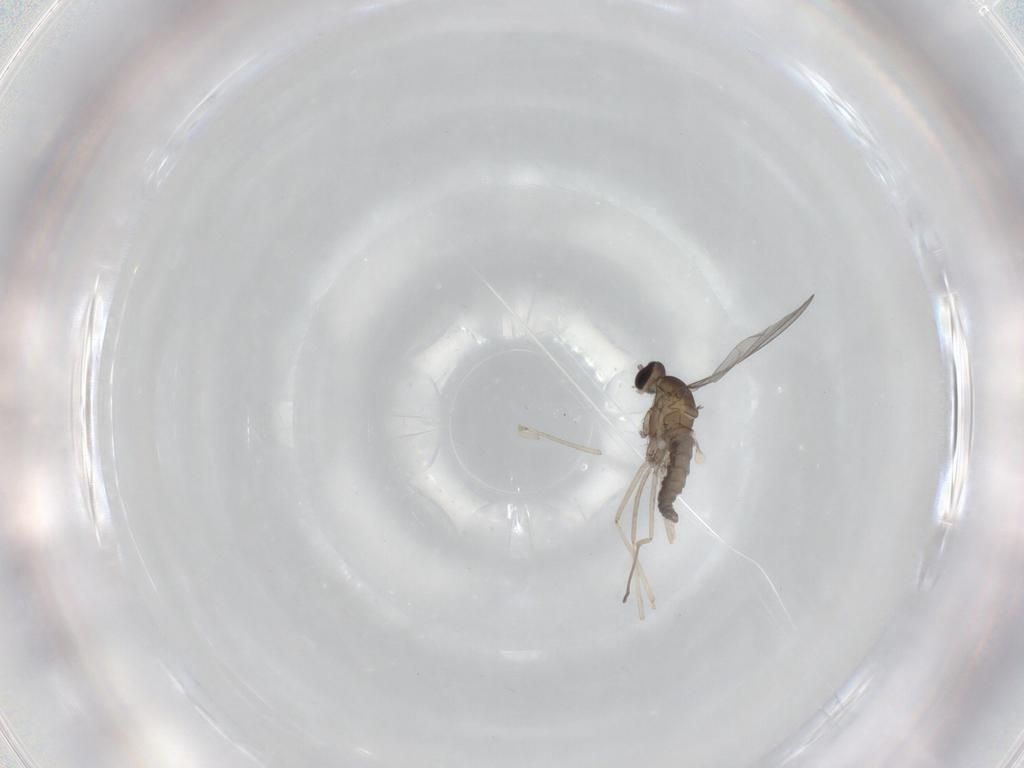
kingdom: Animalia
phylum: Arthropoda
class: Insecta
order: Diptera
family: Cecidomyiidae
